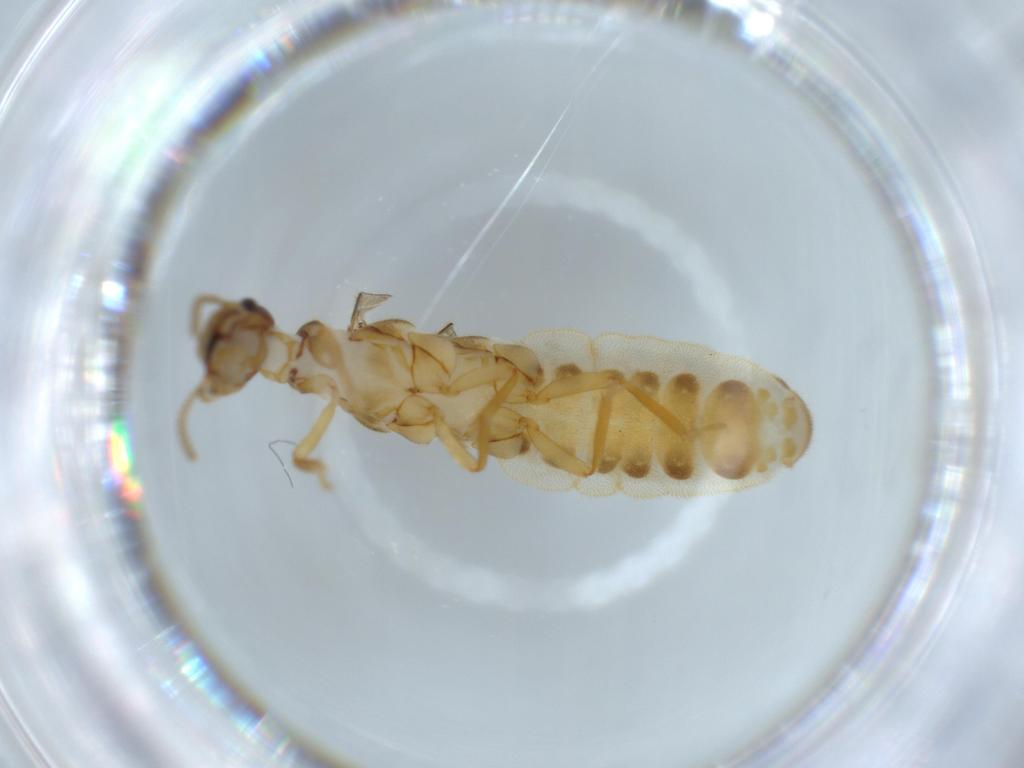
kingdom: Animalia
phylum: Arthropoda
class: Insecta
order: Blattodea
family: Termitidae
